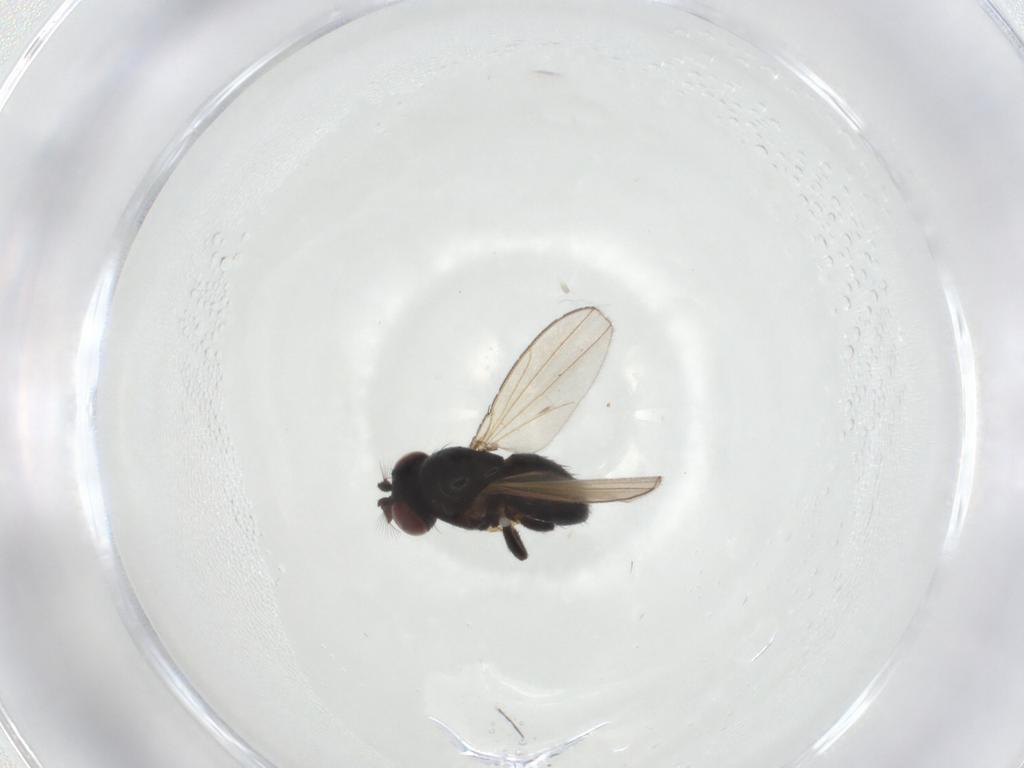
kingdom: Animalia
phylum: Arthropoda
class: Insecta
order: Diptera
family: Ephydridae
